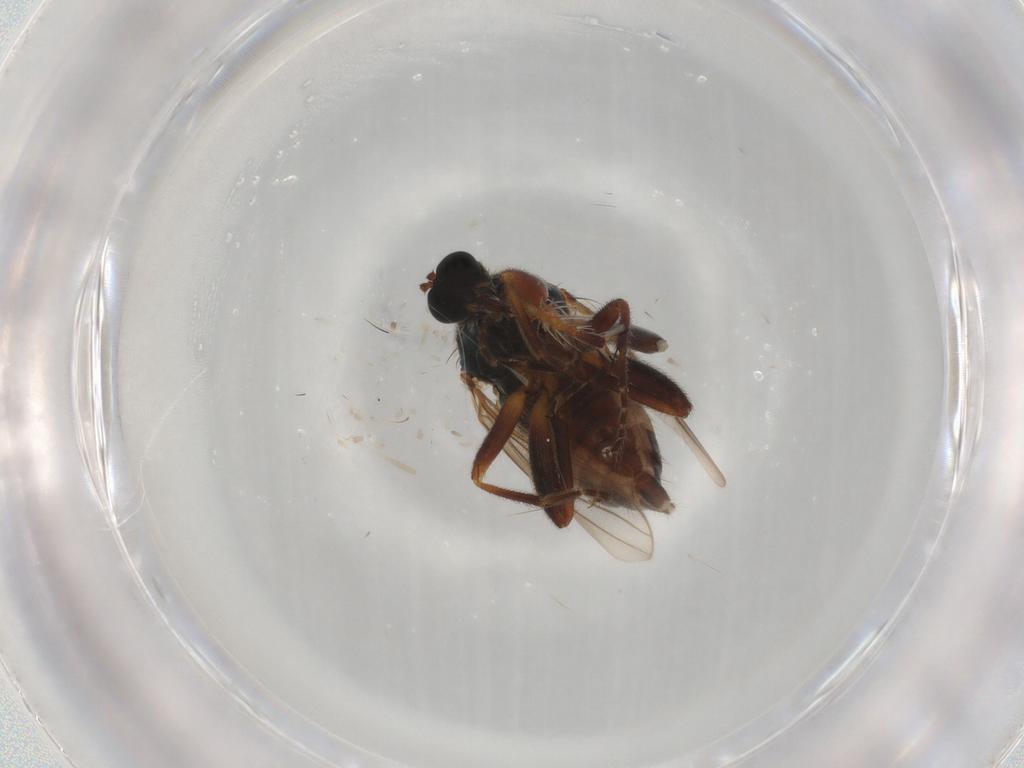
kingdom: Animalia
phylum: Arthropoda
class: Insecta
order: Diptera
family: Hybotidae
